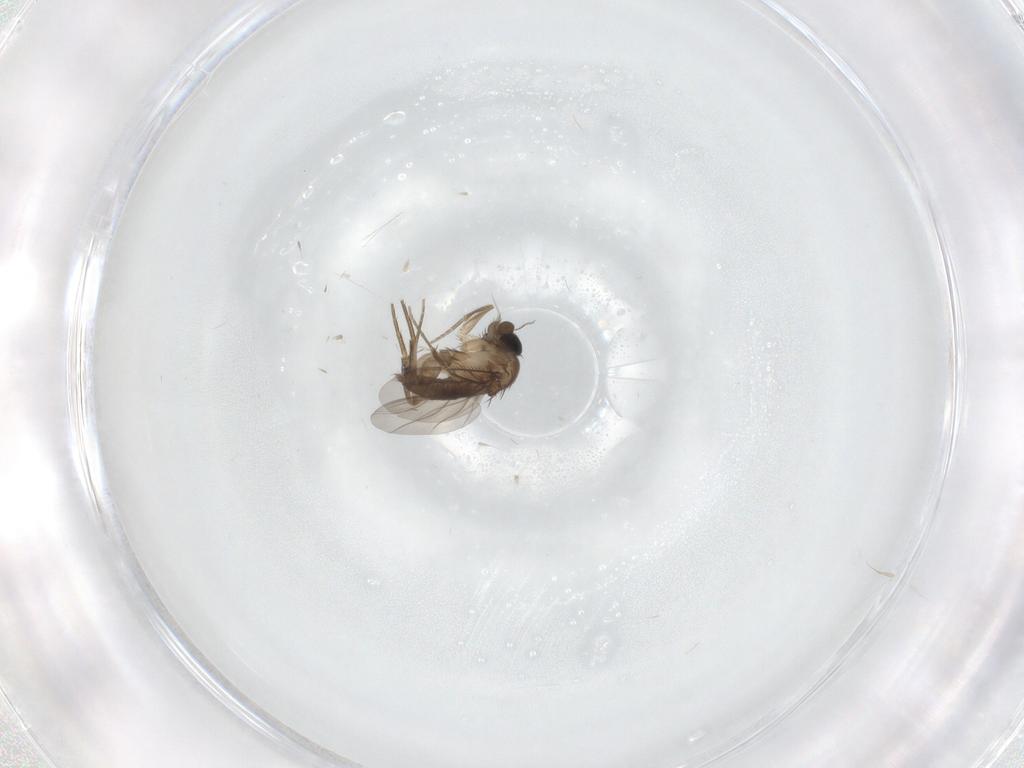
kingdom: Animalia
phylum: Arthropoda
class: Insecta
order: Diptera
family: Phoridae
